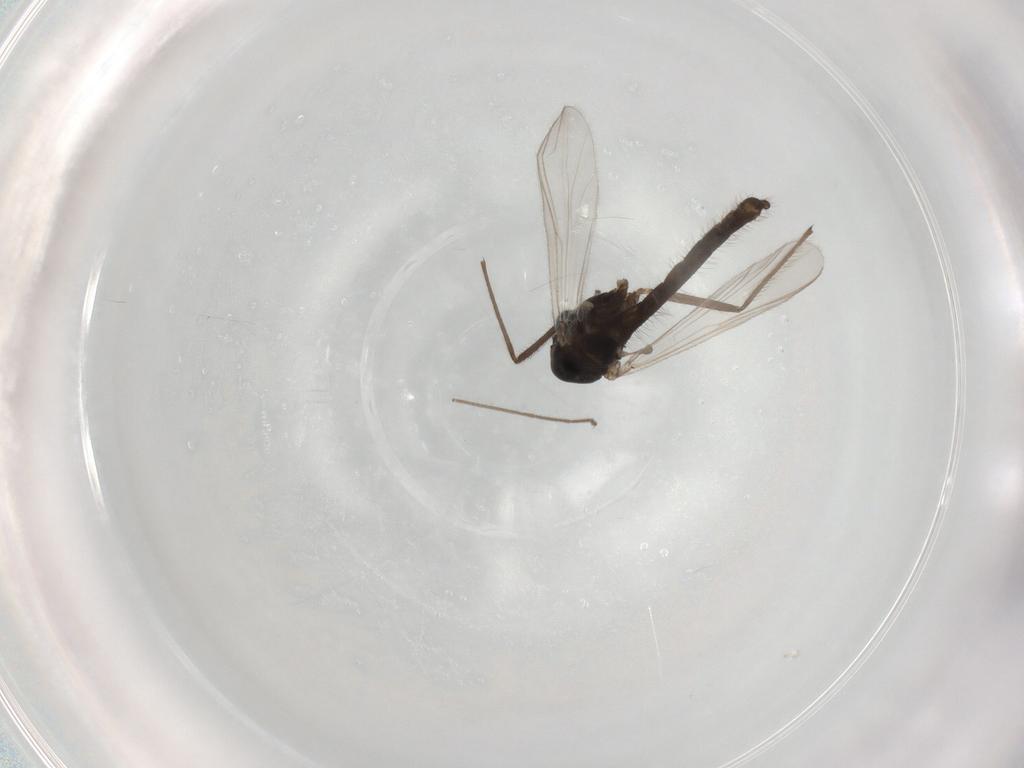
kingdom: Animalia
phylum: Arthropoda
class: Insecta
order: Diptera
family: Chironomidae
